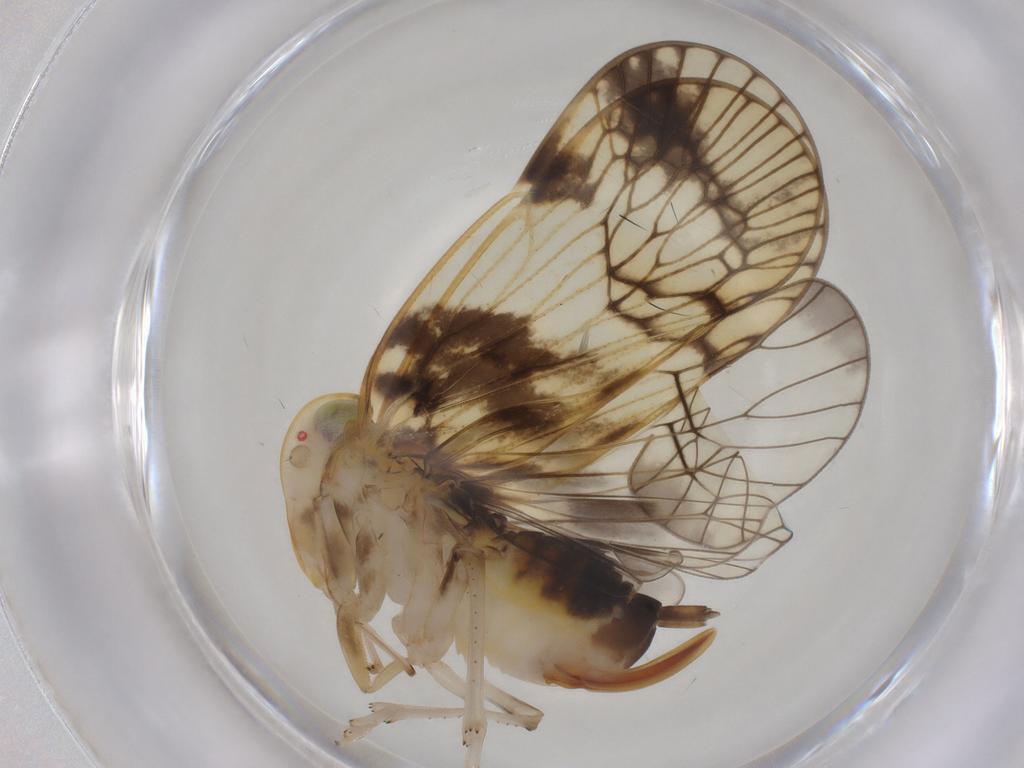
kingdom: Animalia
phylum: Arthropoda
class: Insecta
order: Hemiptera
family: Cixiidae
